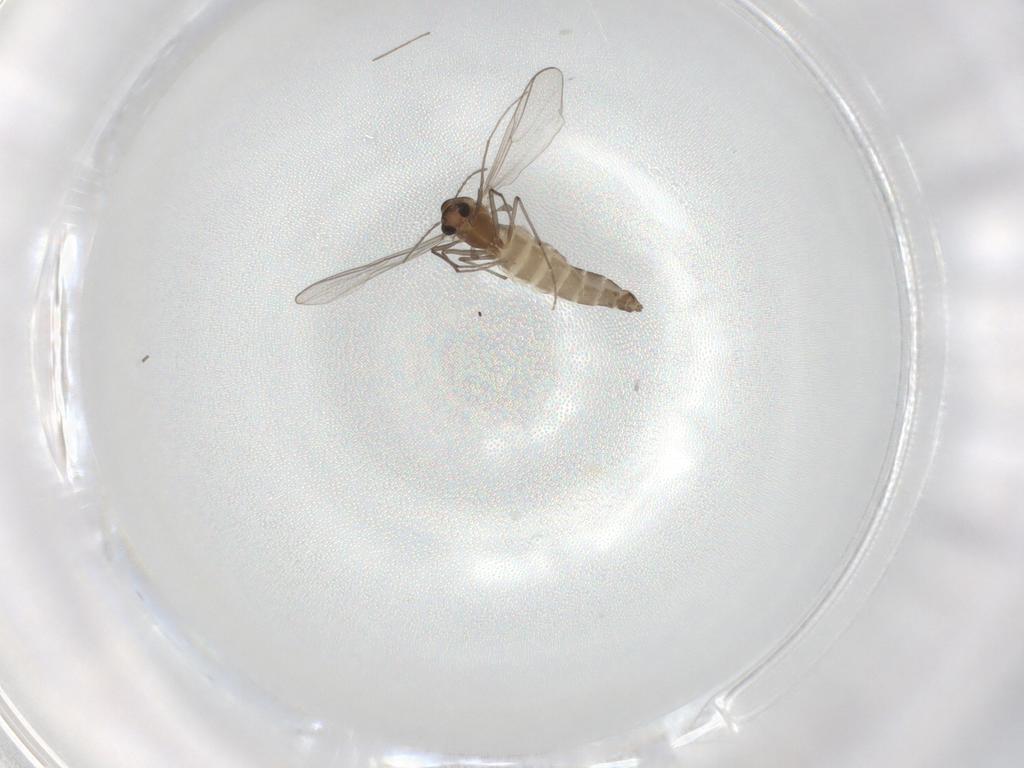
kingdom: Animalia
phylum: Arthropoda
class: Insecta
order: Diptera
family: Chironomidae
